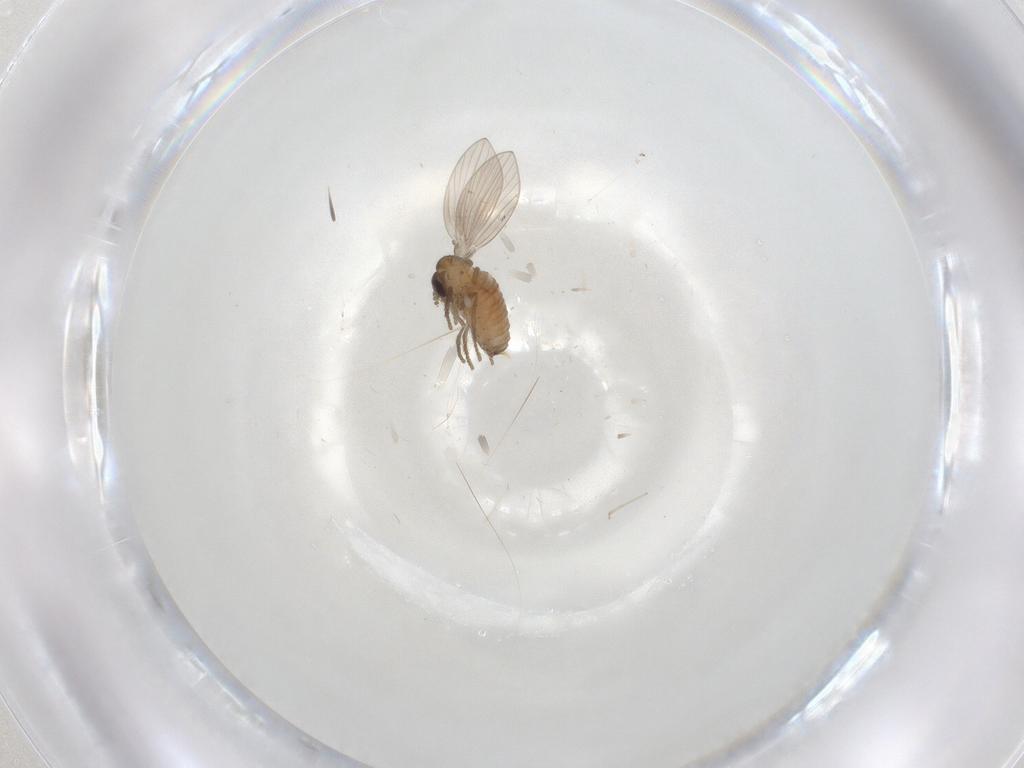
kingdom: Animalia
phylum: Arthropoda
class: Insecta
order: Diptera
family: Psychodidae
